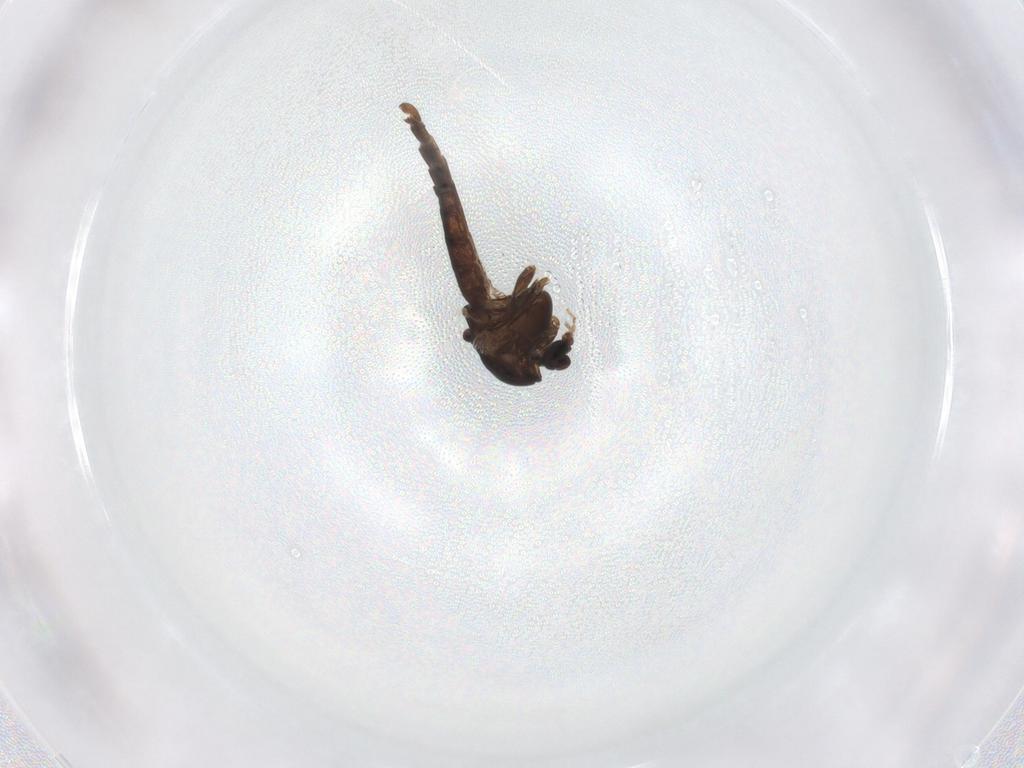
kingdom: Animalia
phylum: Arthropoda
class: Insecta
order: Diptera
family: Chironomidae
